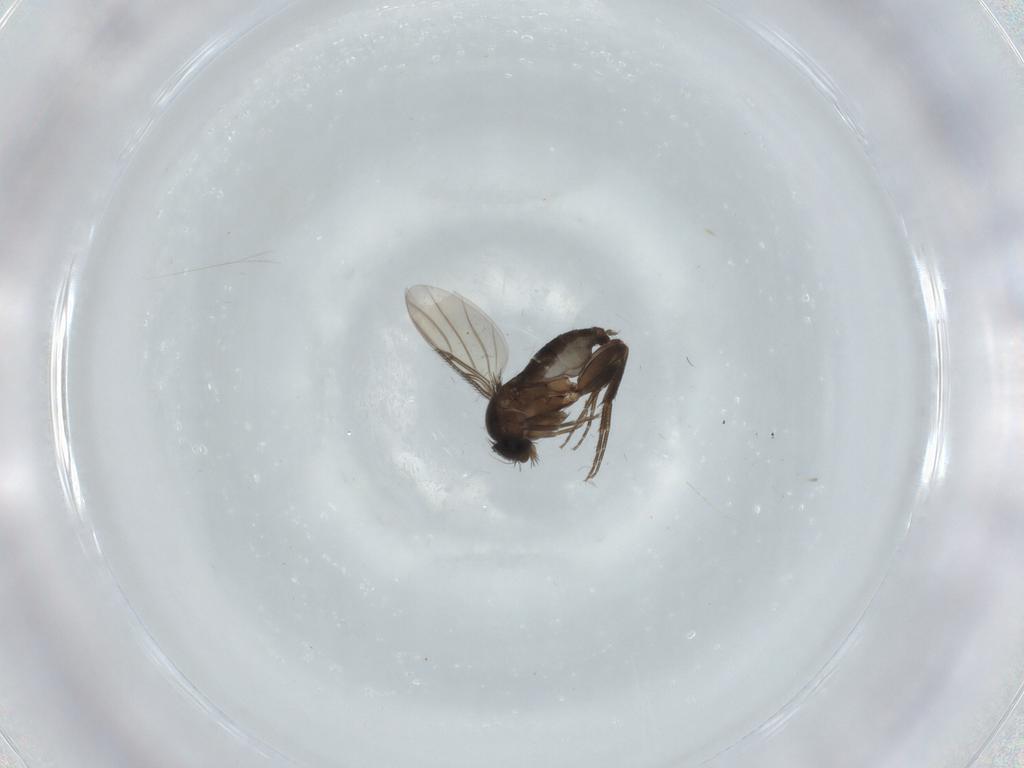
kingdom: Animalia
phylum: Arthropoda
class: Insecta
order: Diptera
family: Phoridae
